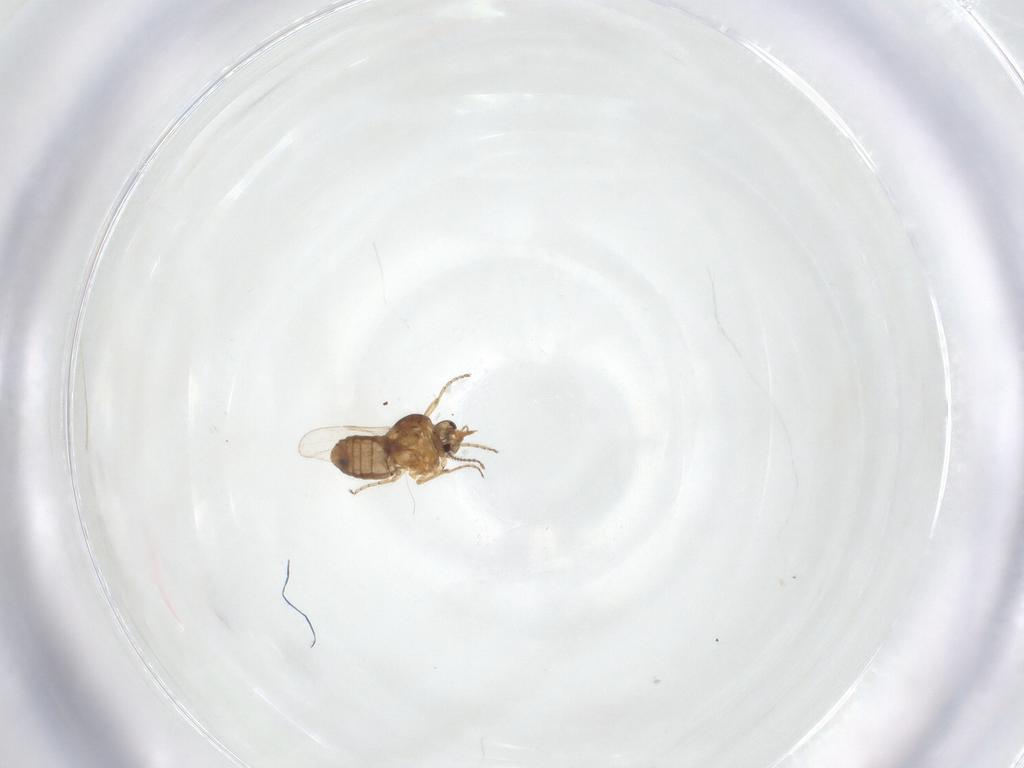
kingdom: Animalia
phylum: Arthropoda
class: Insecta
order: Diptera
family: Ceratopogonidae
